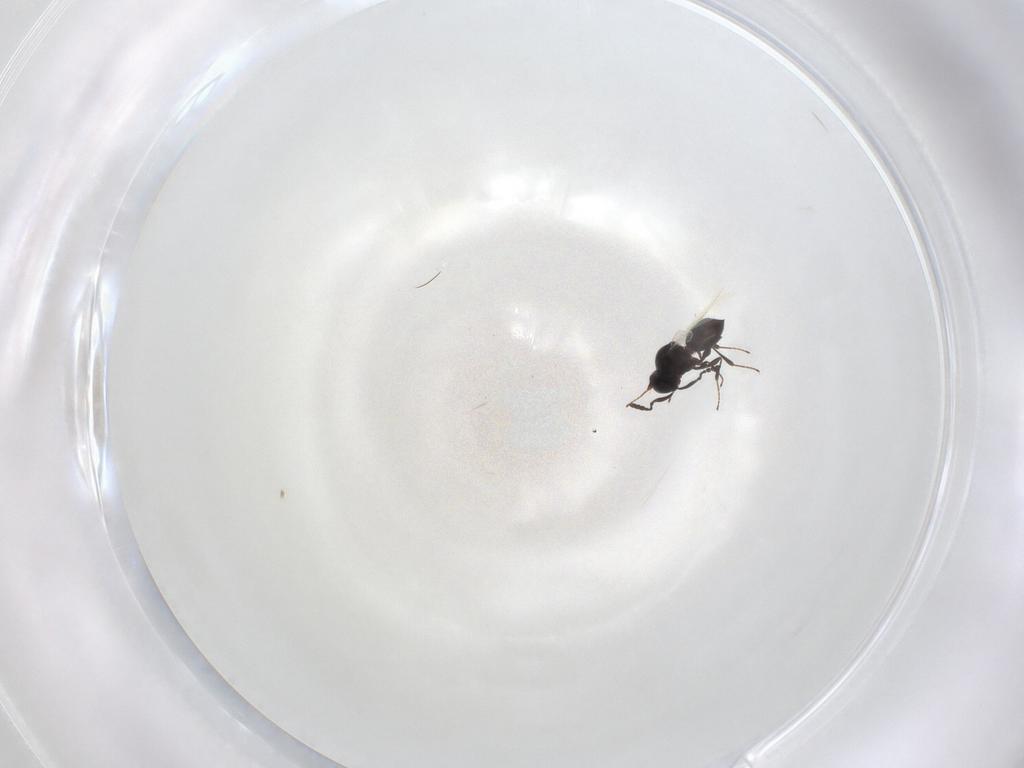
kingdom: Animalia
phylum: Arthropoda
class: Insecta
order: Hymenoptera
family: Platygastridae
